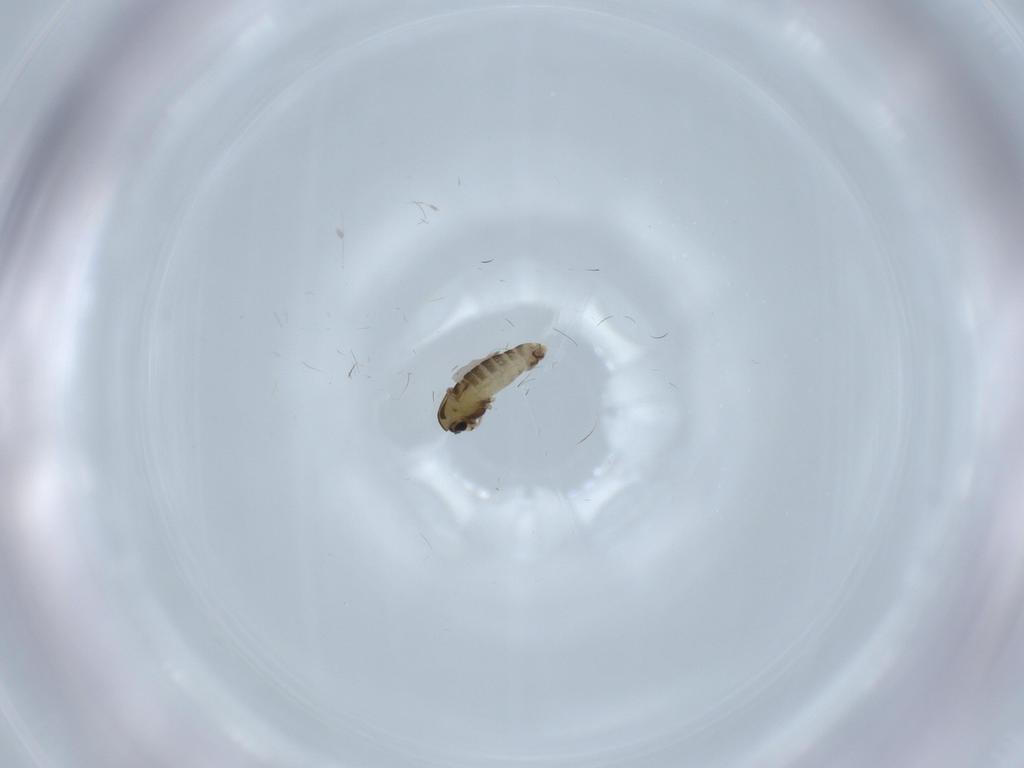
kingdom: Animalia
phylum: Arthropoda
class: Insecta
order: Diptera
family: Chironomidae
